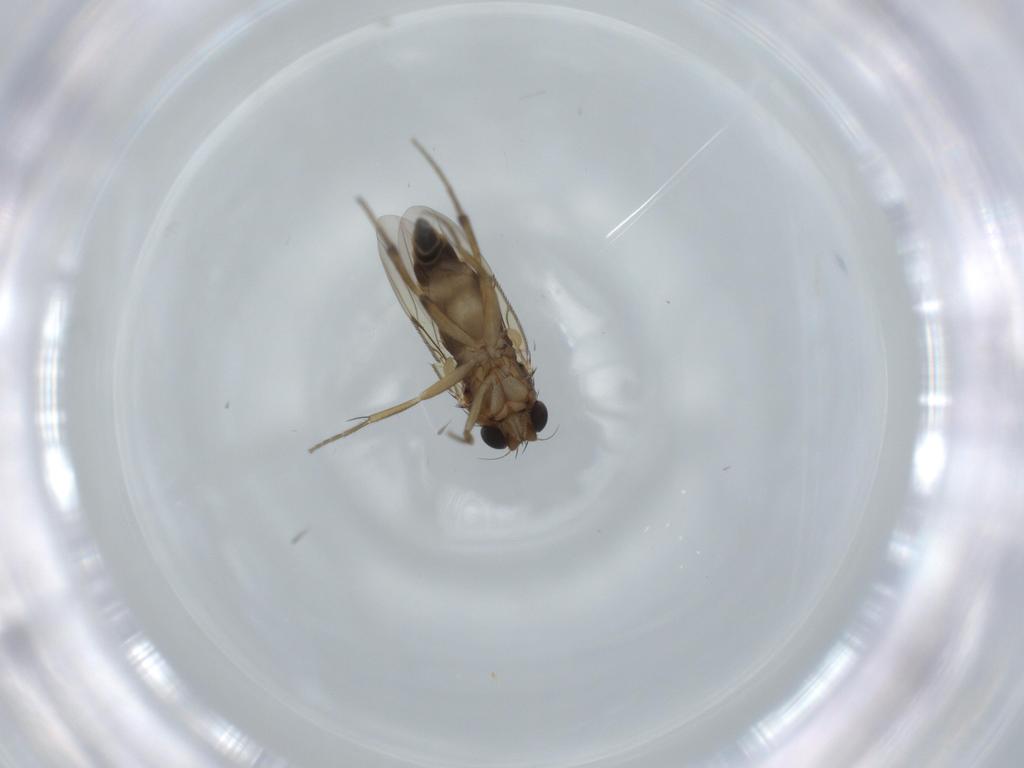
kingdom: Animalia
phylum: Arthropoda
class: Insecta
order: Diptera
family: Phoridae
